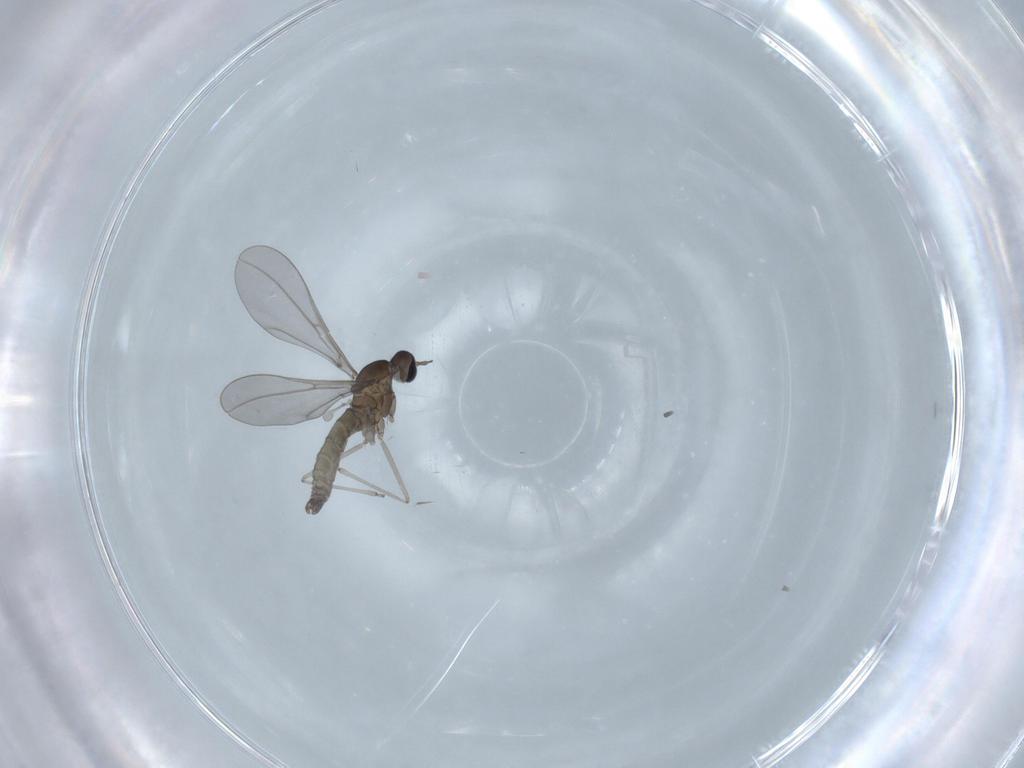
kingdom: Animalia
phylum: Arthropoda
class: Insecta
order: Diptera
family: Cecidomyiidae
